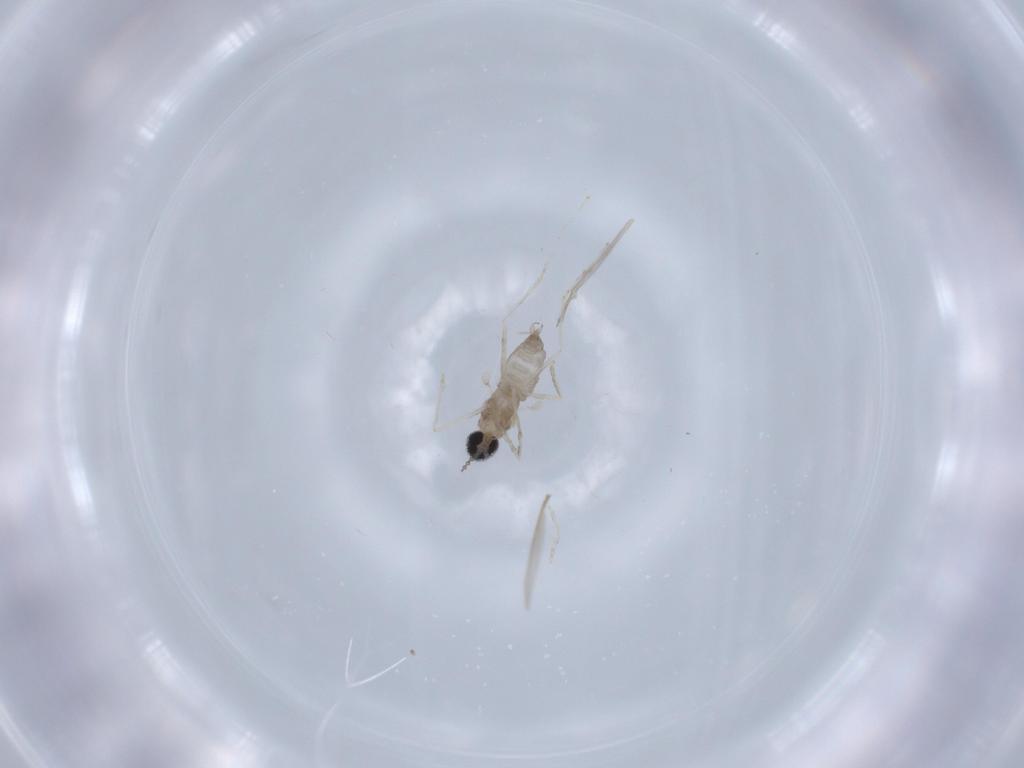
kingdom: Animalia
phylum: Arthropoda
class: Insecta
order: Diptera
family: Cecidomyiidae
